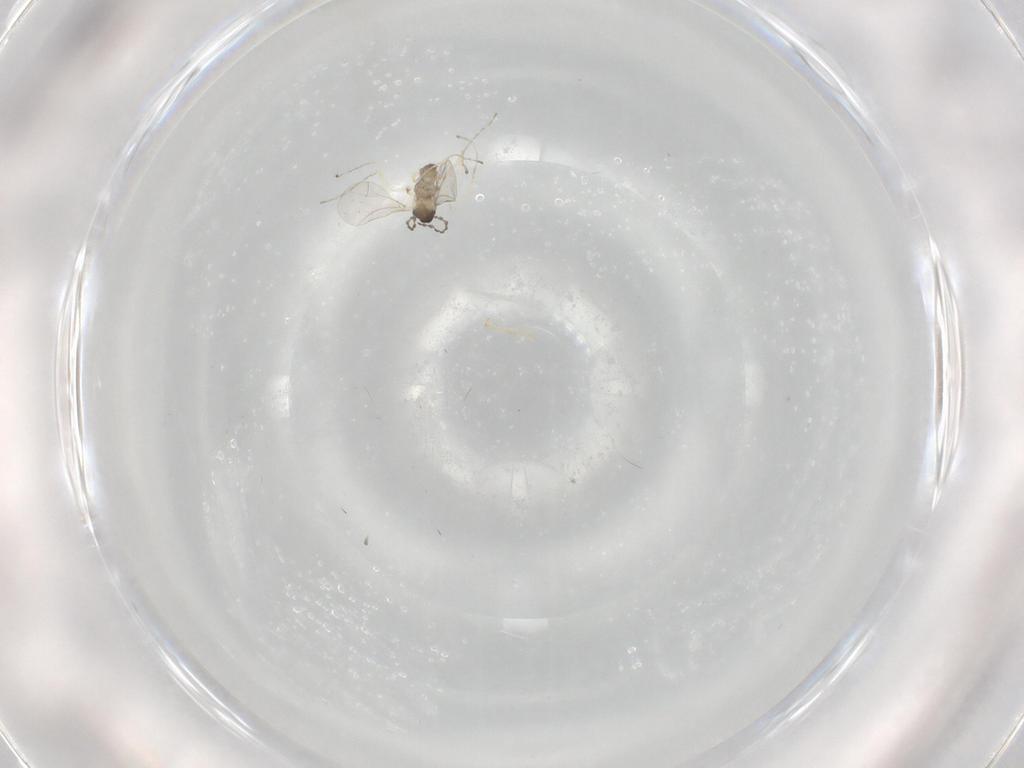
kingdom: Animalia
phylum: Arthropoda
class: Insecta
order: Diptera
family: Cecidomyiidae
